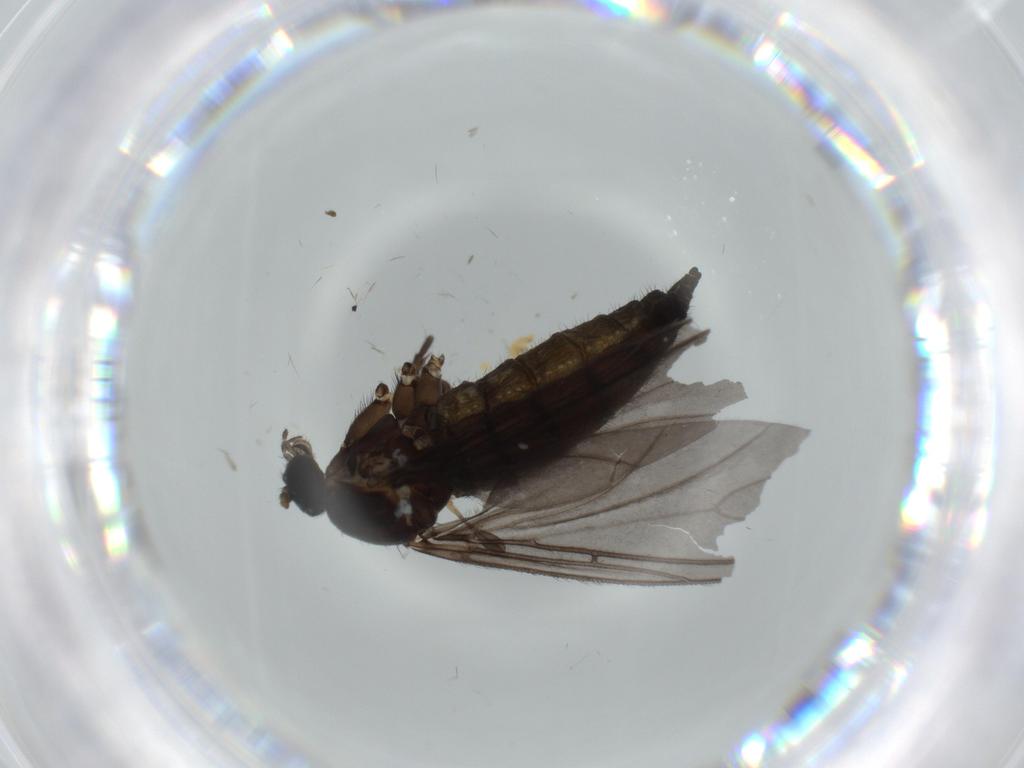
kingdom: Animalia
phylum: Arthropoda
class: Insecta
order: Diptera
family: Sciaridae
